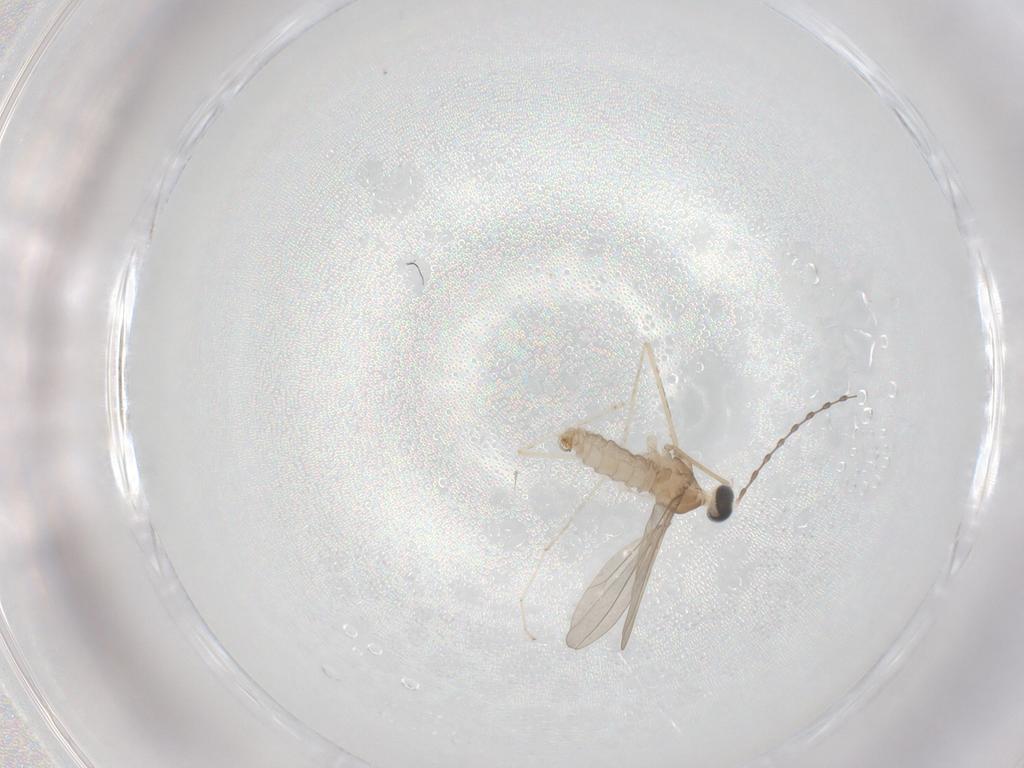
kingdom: Animalia
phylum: Arthropoda
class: Insecta
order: Diptera
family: Cecidomyiidae
